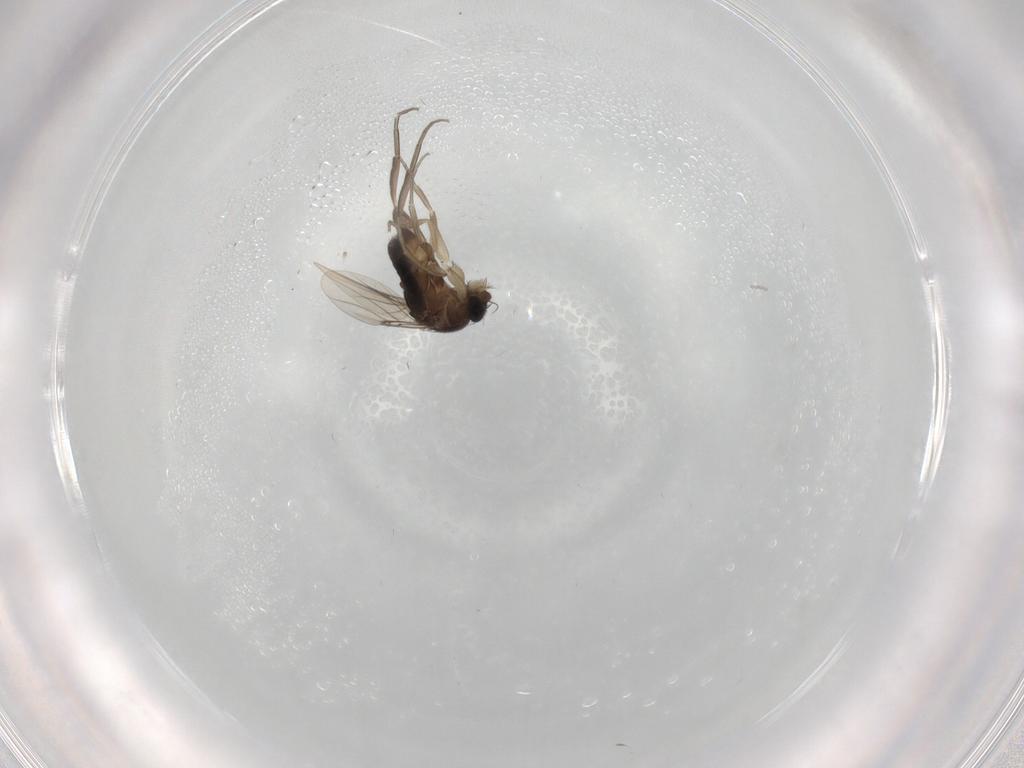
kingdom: Animalia
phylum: Arthropoda
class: Insecta
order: Diptera
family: Phoridae
